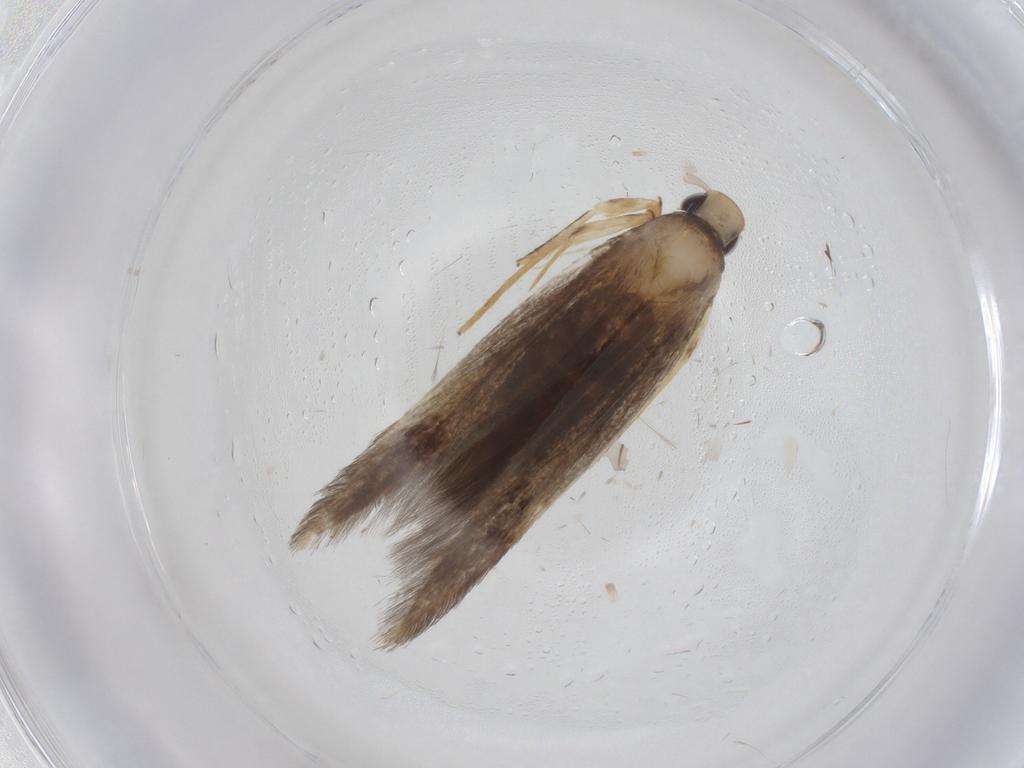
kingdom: Animalia
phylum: Arthropoda
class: Insecta
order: Lepidoptera
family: Cosmopterigidae
